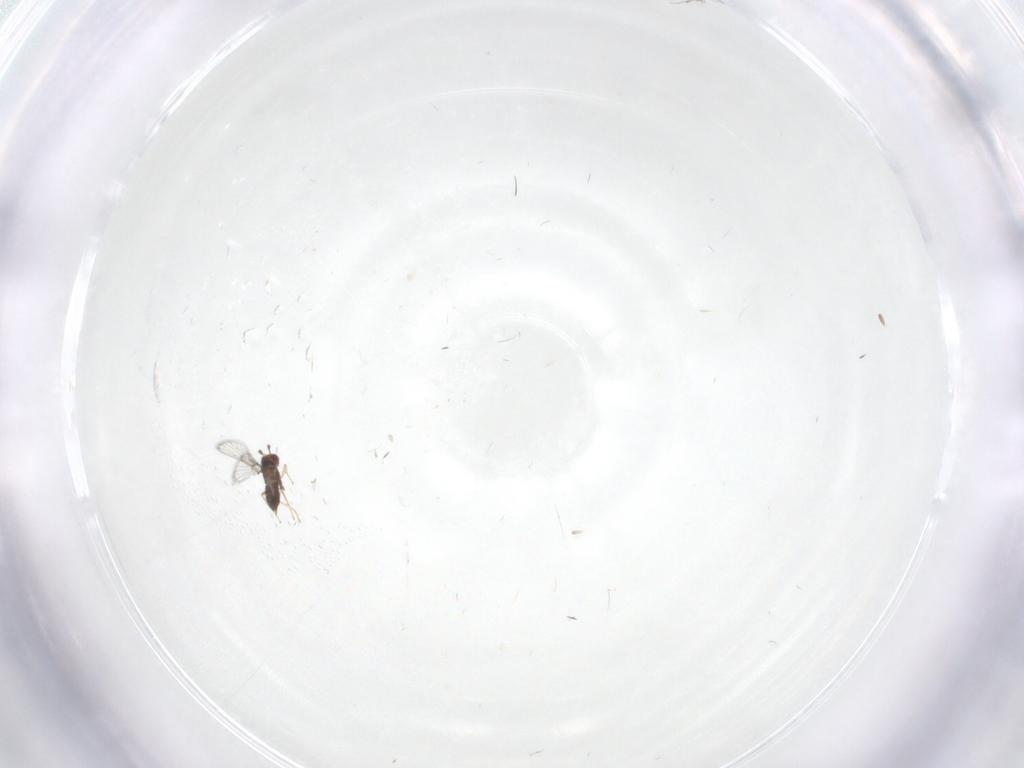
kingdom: Animalia
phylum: Arthropoda
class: Insecta
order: Hymenoptera
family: Trichogrammatidae
